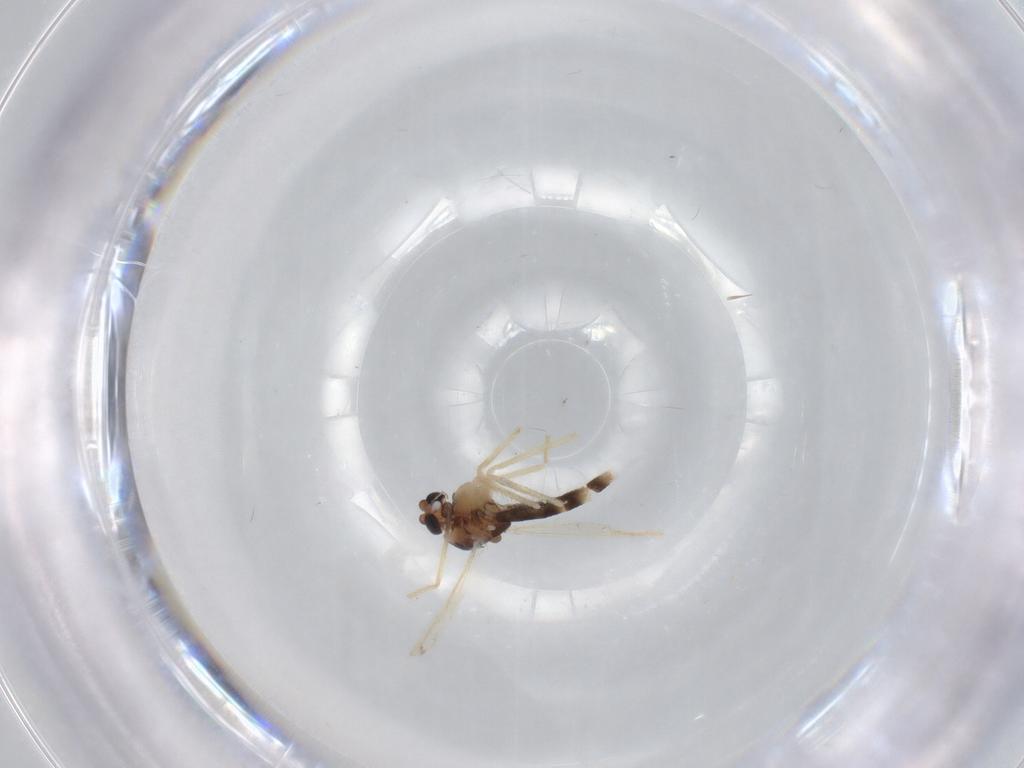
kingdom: Animalia
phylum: Arthropoda
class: Insecta
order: Diptera
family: Chironomidae
